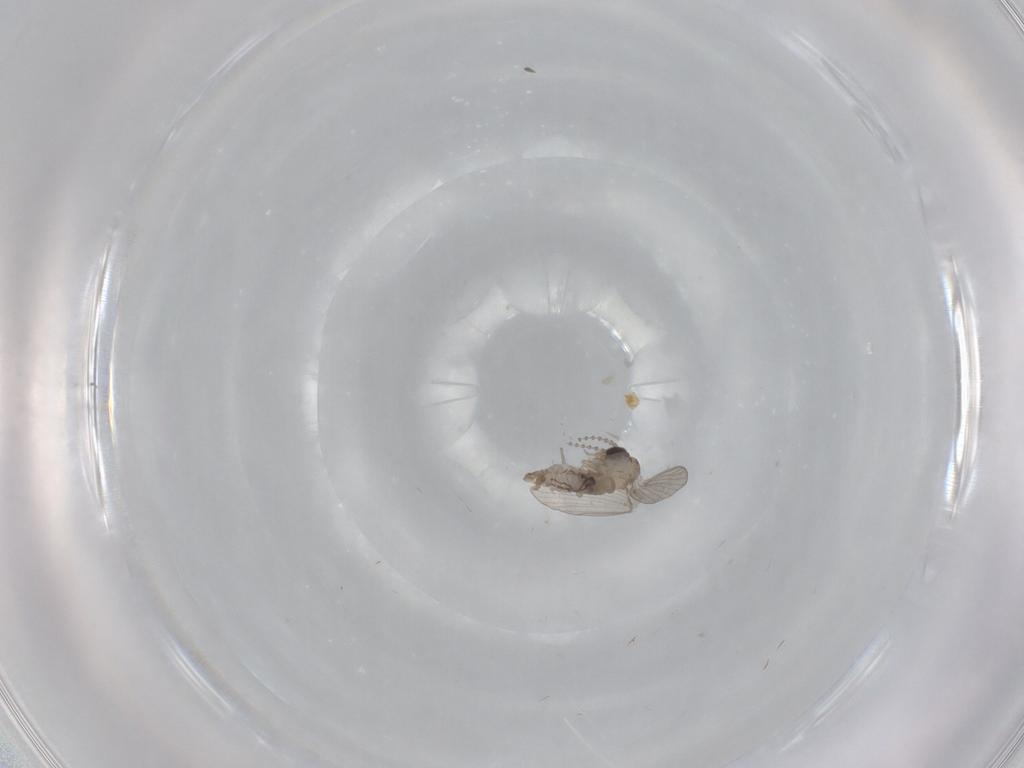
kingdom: Animalia
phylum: Arthropoda
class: Insecta
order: Diptera
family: Psychodidae
